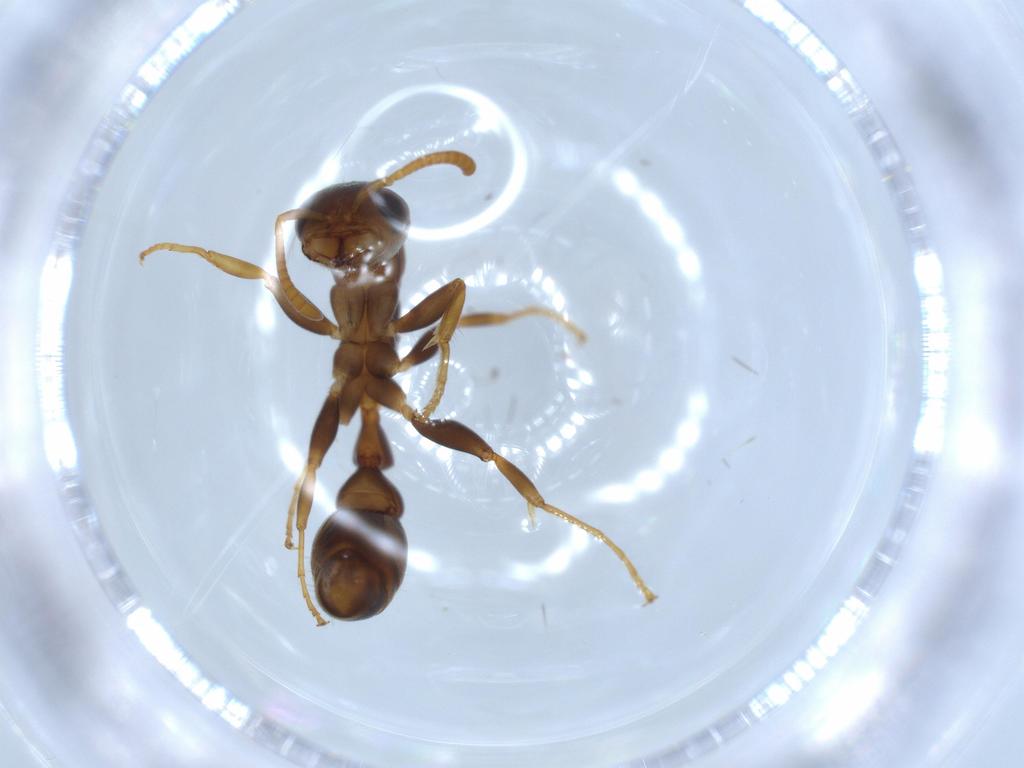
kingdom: Animalia
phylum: Arthropoda
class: Insecta
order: Hymenoptera
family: Formicidae
